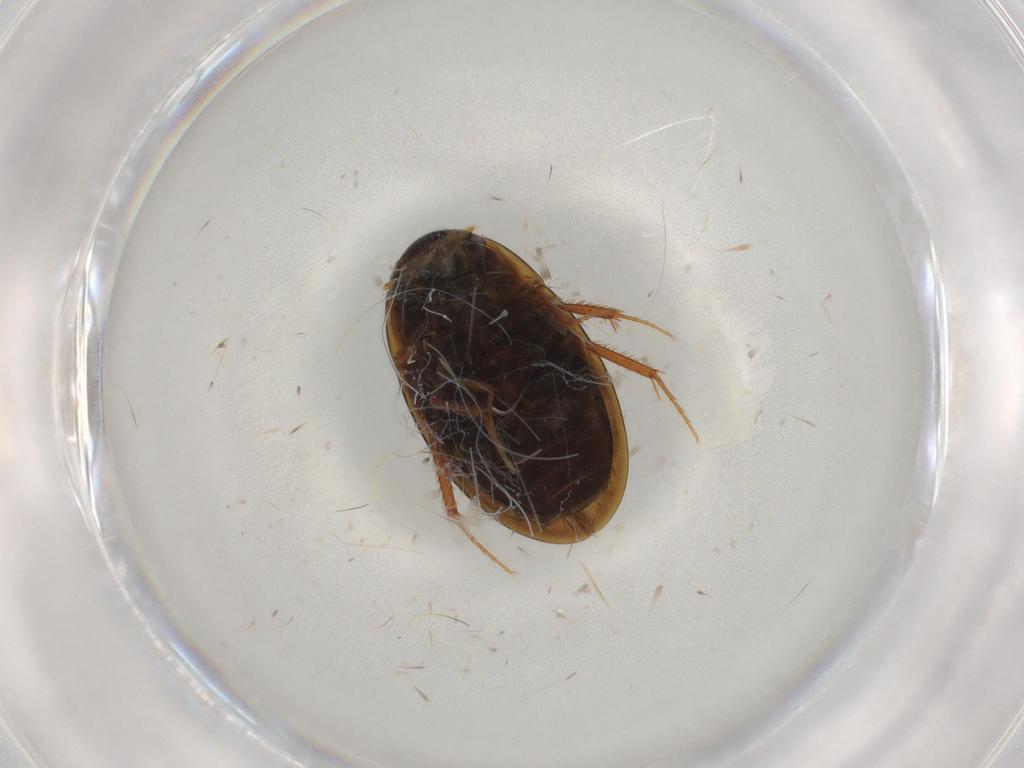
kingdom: Animalia
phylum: Arthropoda
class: Insecta
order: Coleoptera
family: Hydrophilidae
